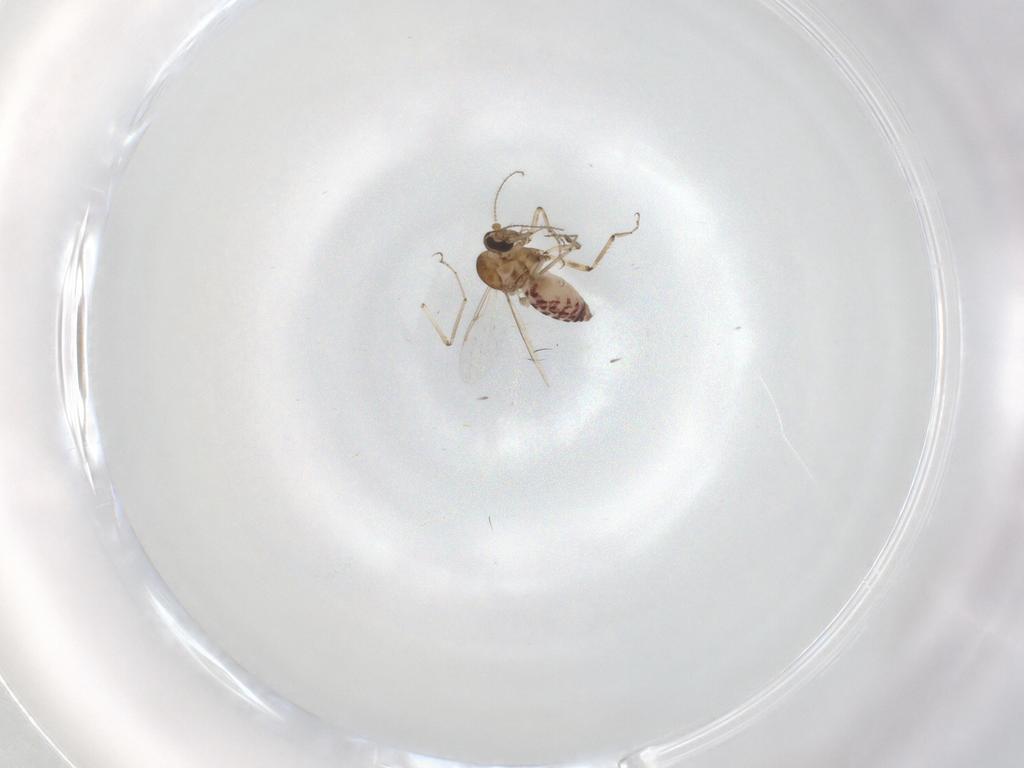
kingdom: Animalia
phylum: Arthropoda
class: Insecta
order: Diptera
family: Ceratopogonidae
